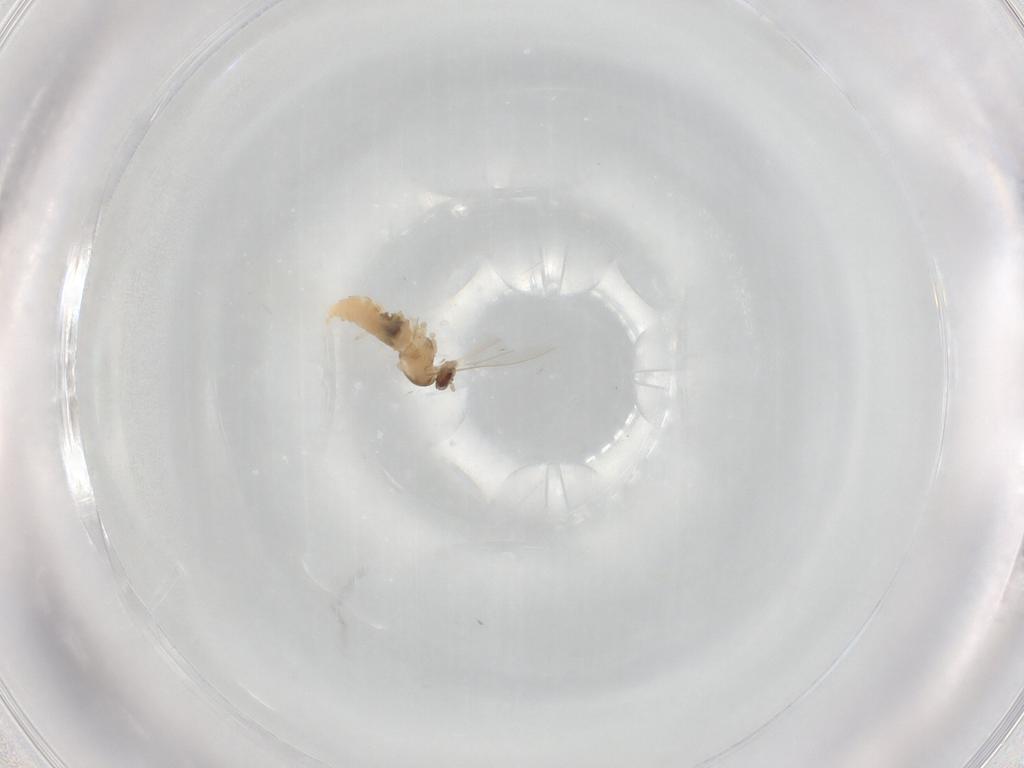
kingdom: Animalia
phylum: Arthropoda
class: Insecta
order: Diptera
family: Cecidomyiidae
